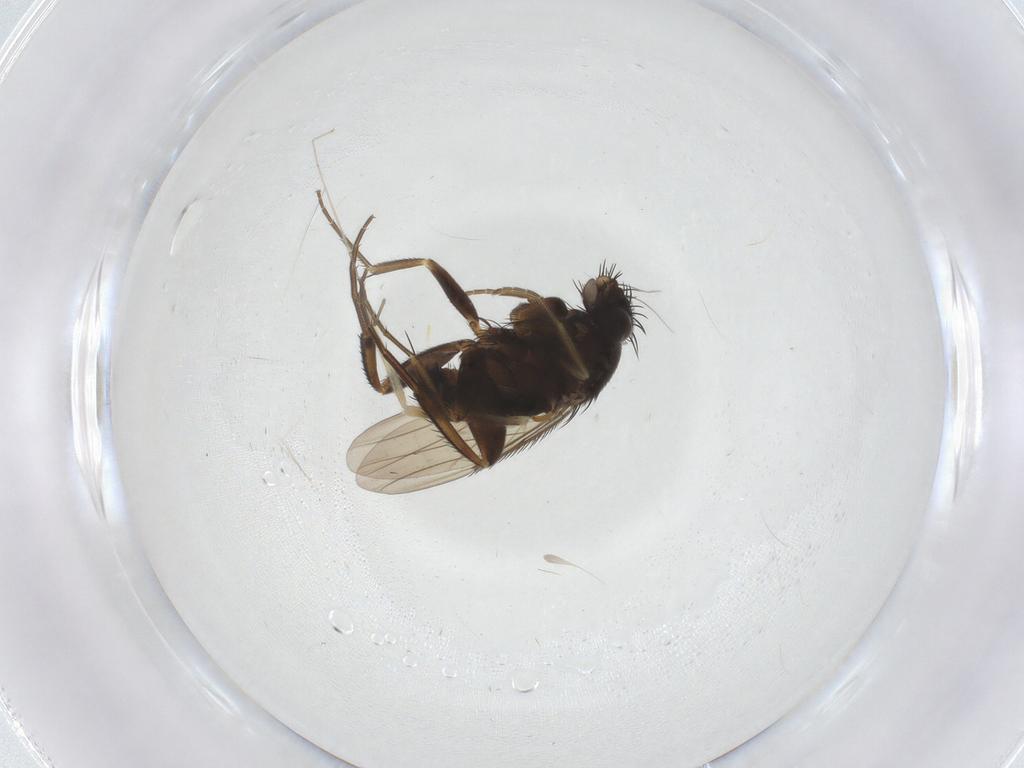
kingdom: Animalia
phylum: Arthropoda
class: Insecta
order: Diptera
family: Phoridae
